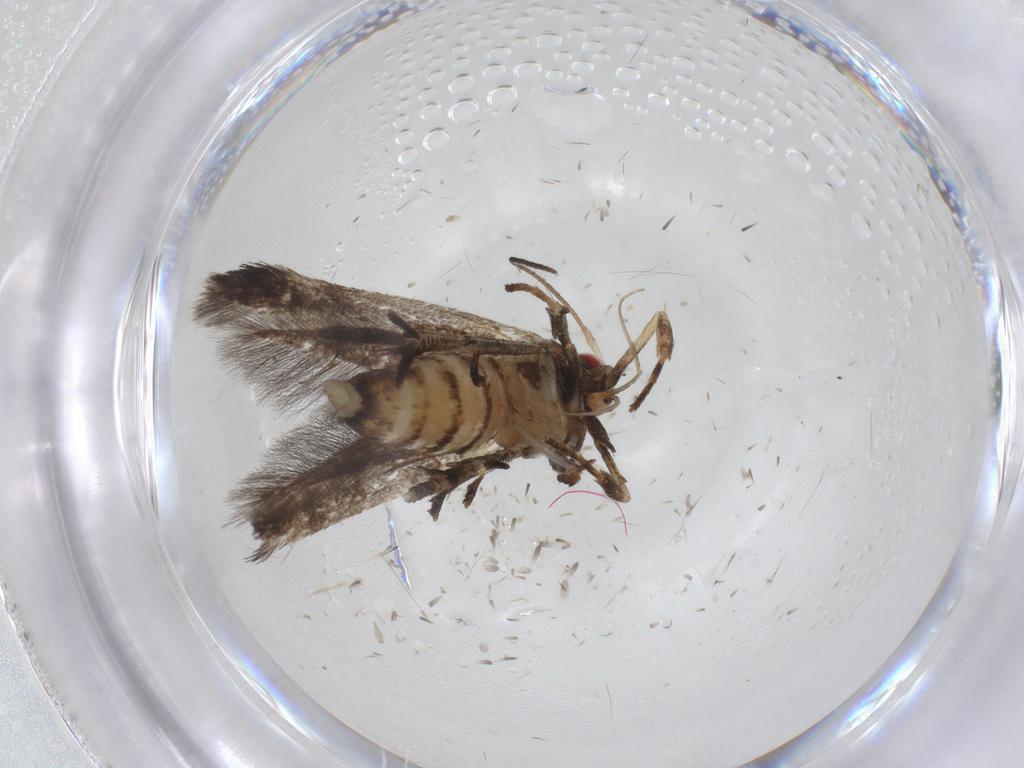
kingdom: Animalia
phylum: Arthropoda
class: Insecta
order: Lepidoptera
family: Gelechiidae
